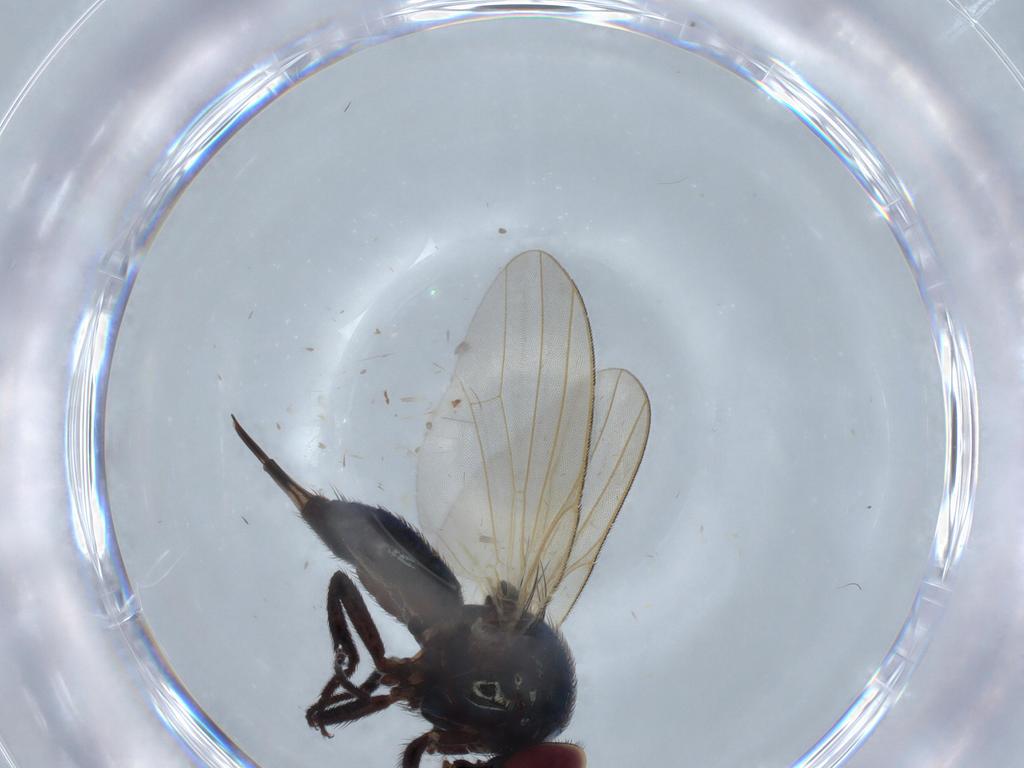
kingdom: Animalia
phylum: Arthropoda
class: Insecta
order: Diptera
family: Lonchaeidae
